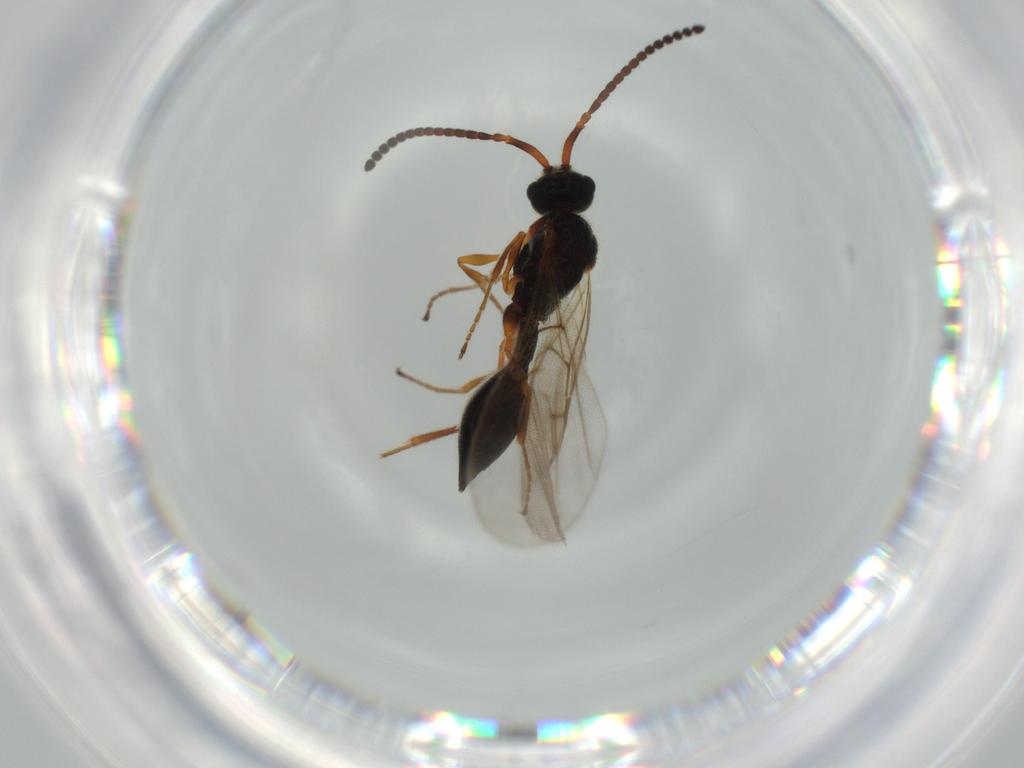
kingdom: Animalia
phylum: Arthropoda
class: Insecta
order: Hymenoptera
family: Diapriidae
